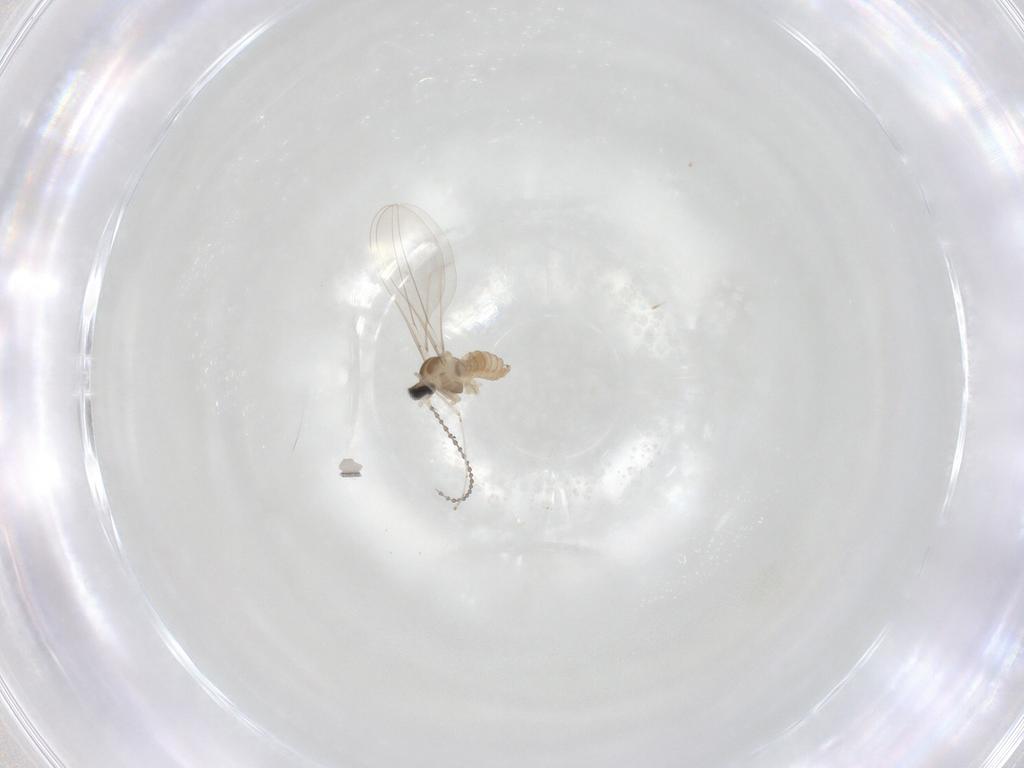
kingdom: Animalia
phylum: Arthropoda
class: Insecta
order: Diptera
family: Cecidomyiidae
